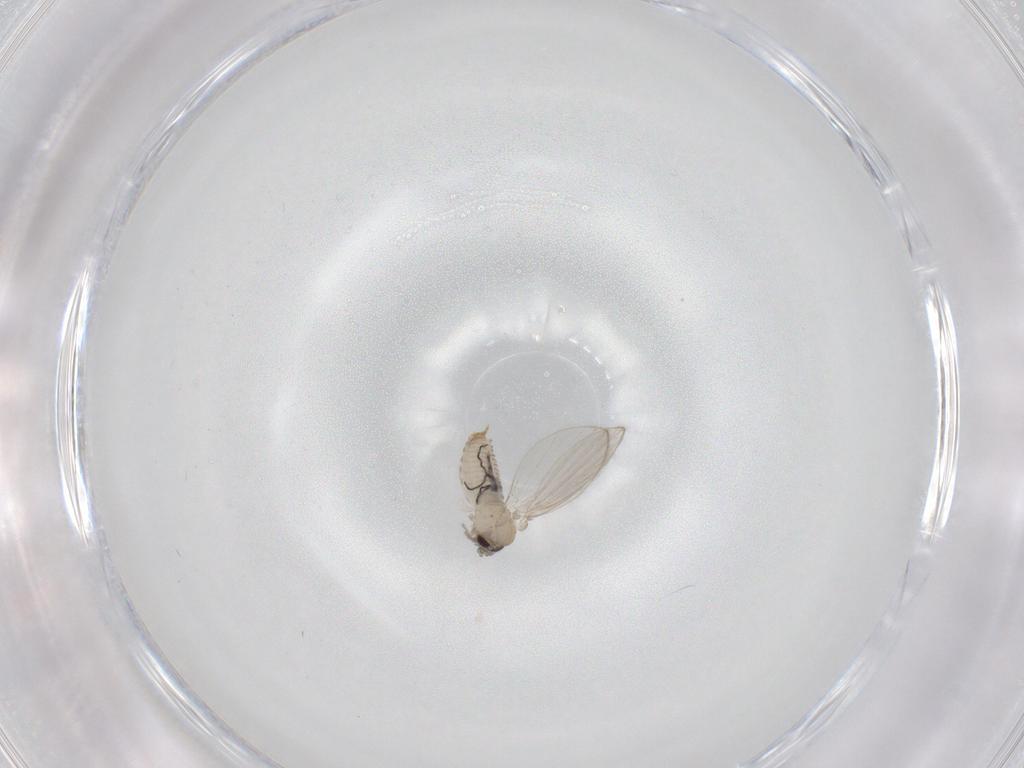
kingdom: Animalia
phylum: Arthropoda
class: Insecta
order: Diptera
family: Psychodidae
